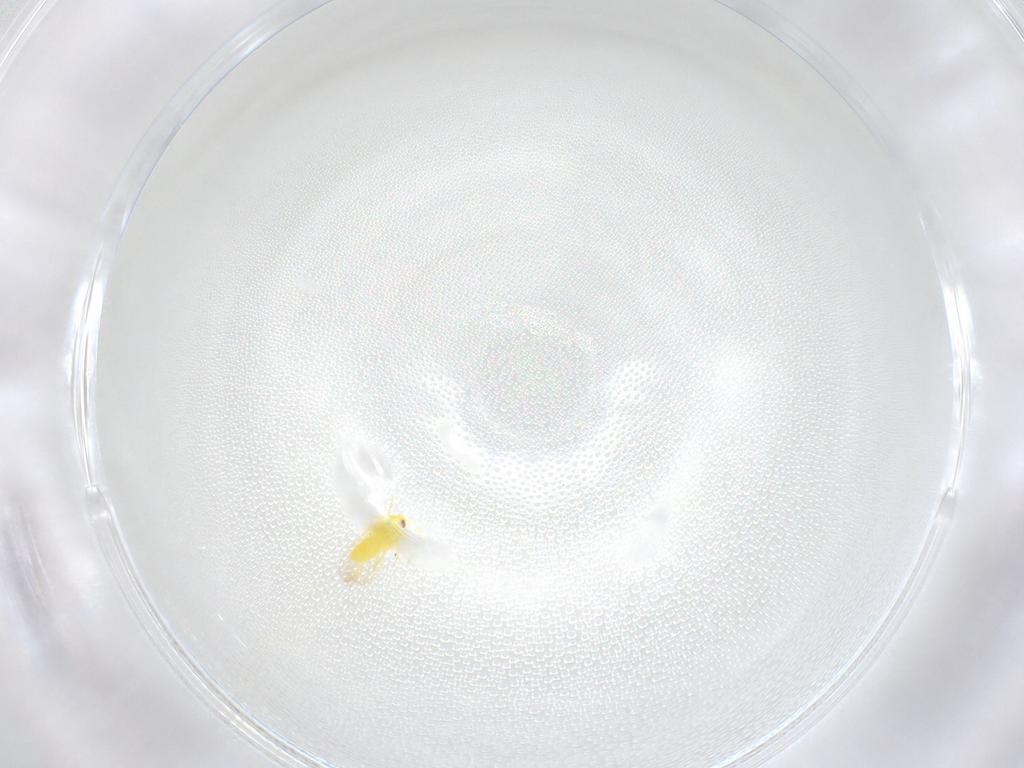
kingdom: Animalia
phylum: Arthropoda
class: Insecta
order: Hemiptera
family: Aleyrodidae
